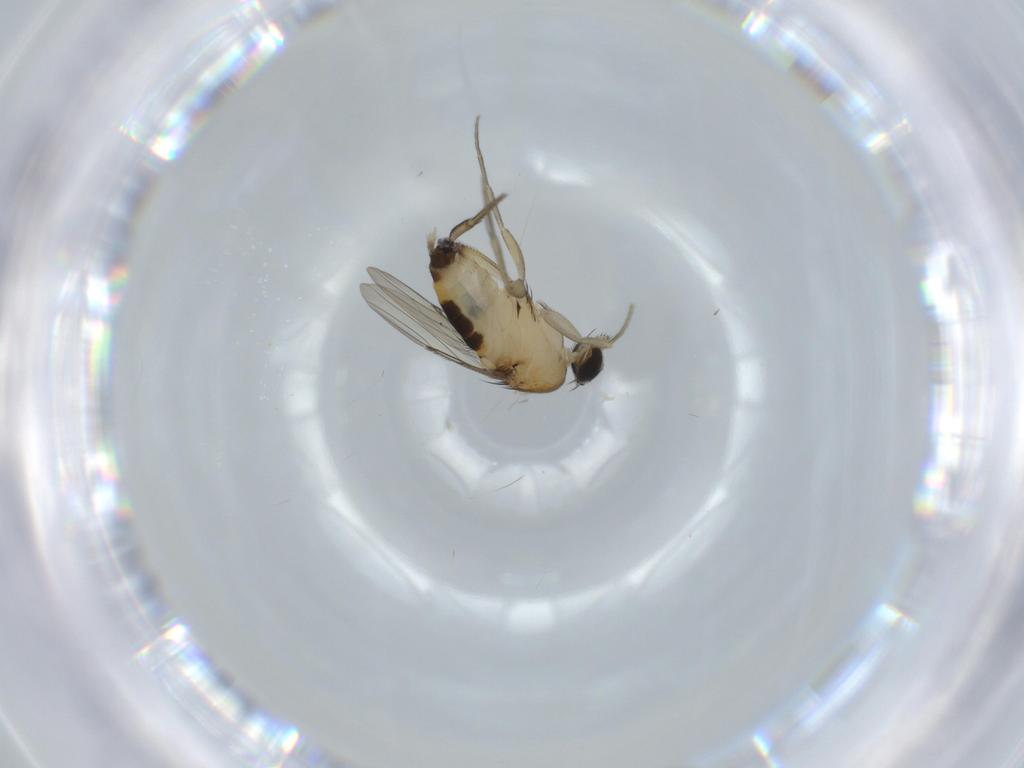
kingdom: Animalia
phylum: Arthropoda
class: Insecta
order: Diptera
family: Phoridae
